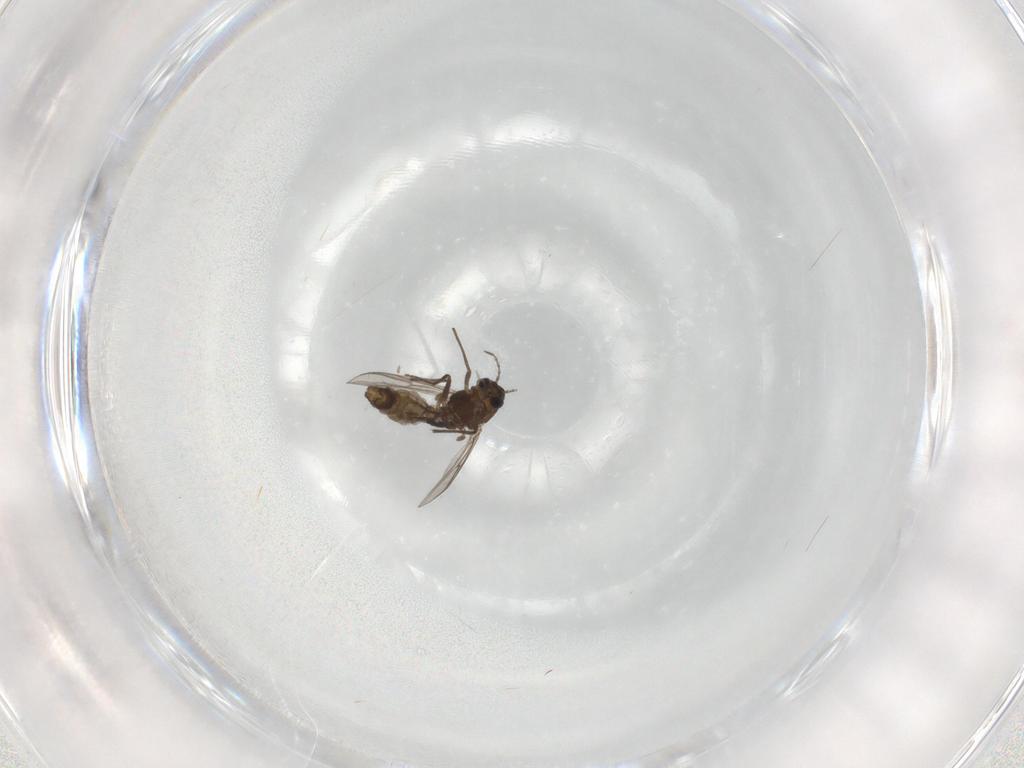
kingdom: Animalia
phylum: Arthropoda
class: Insecta
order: Diptera
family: Chironomidae
